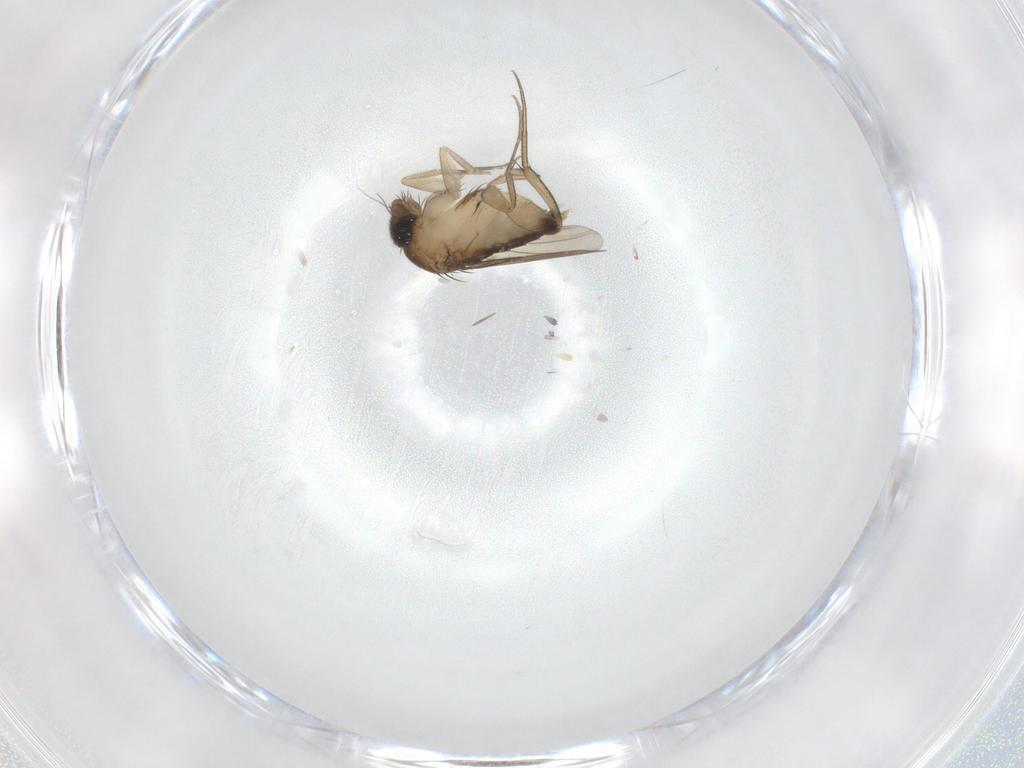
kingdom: Animalia
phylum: Arthropoda
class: Insecta
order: Diptera
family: Phoridae
